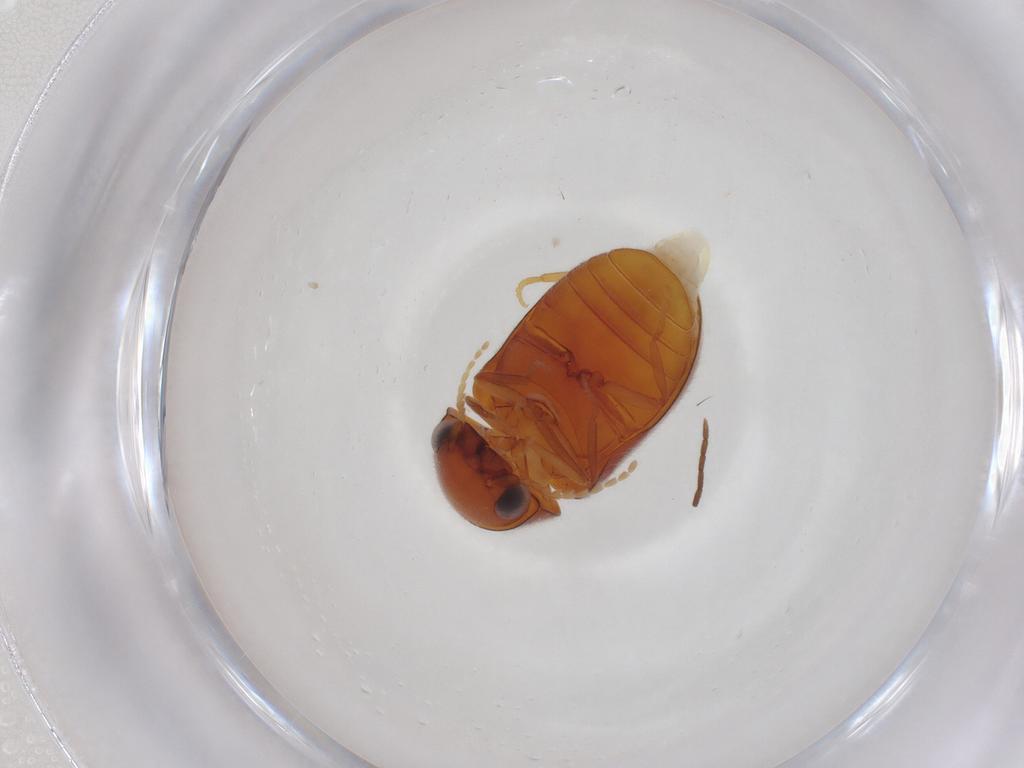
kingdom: Animalia
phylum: Arthropoda
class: Insecta
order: Coleoptera
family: Ptinidae
